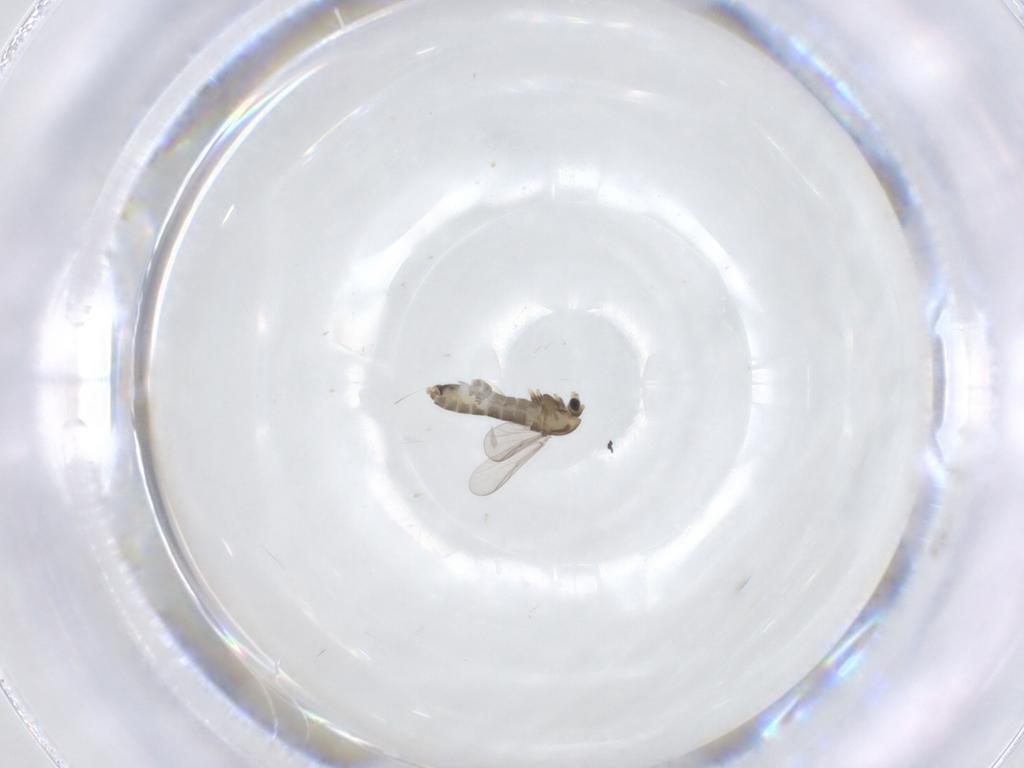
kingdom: Animalia
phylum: Arthropoda
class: Insecta
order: Diptera
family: Chironomidae
